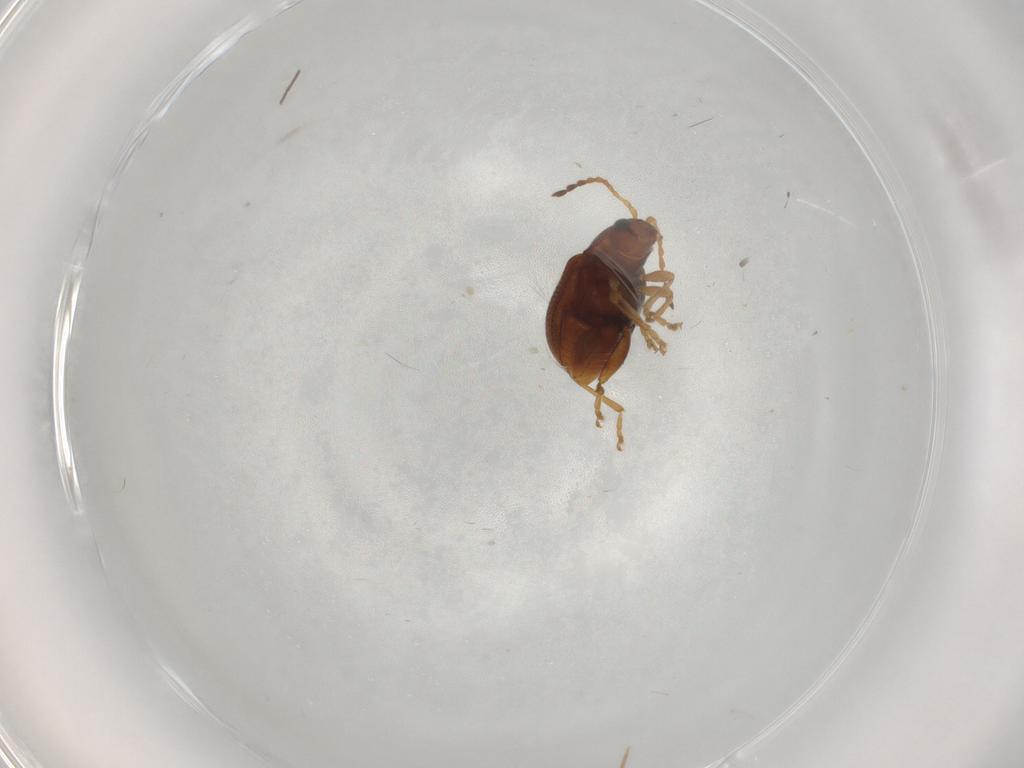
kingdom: Animalia
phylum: Arthropoda
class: Insecta
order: Coleoptera
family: Chrysomelidae
